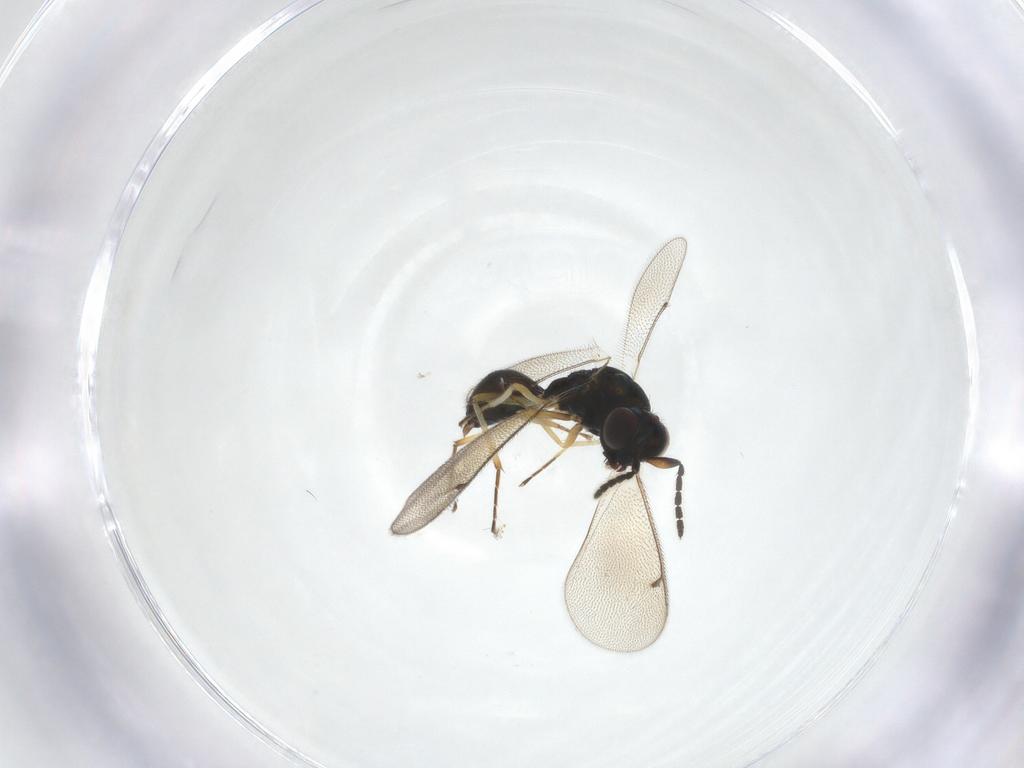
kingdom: Animalia
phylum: Arthropoda
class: Insecta
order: Hymenoptera
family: Eulophidae
